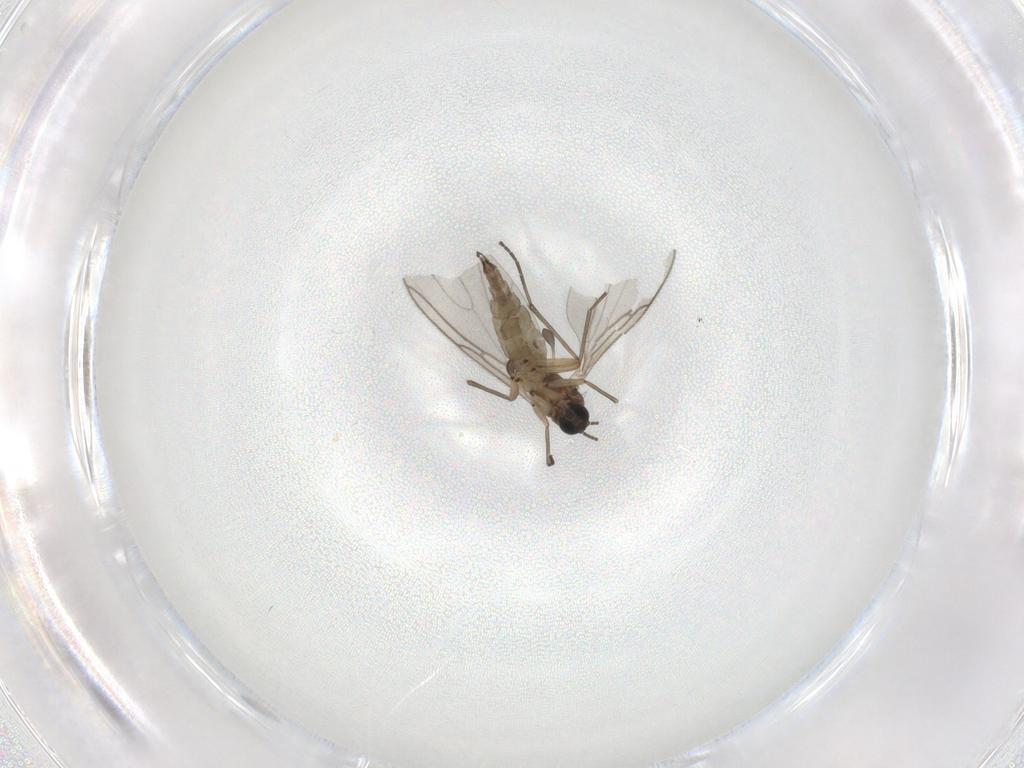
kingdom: Animalia
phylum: Arthropoda
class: Insecta
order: Diptera
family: Sciaridae
